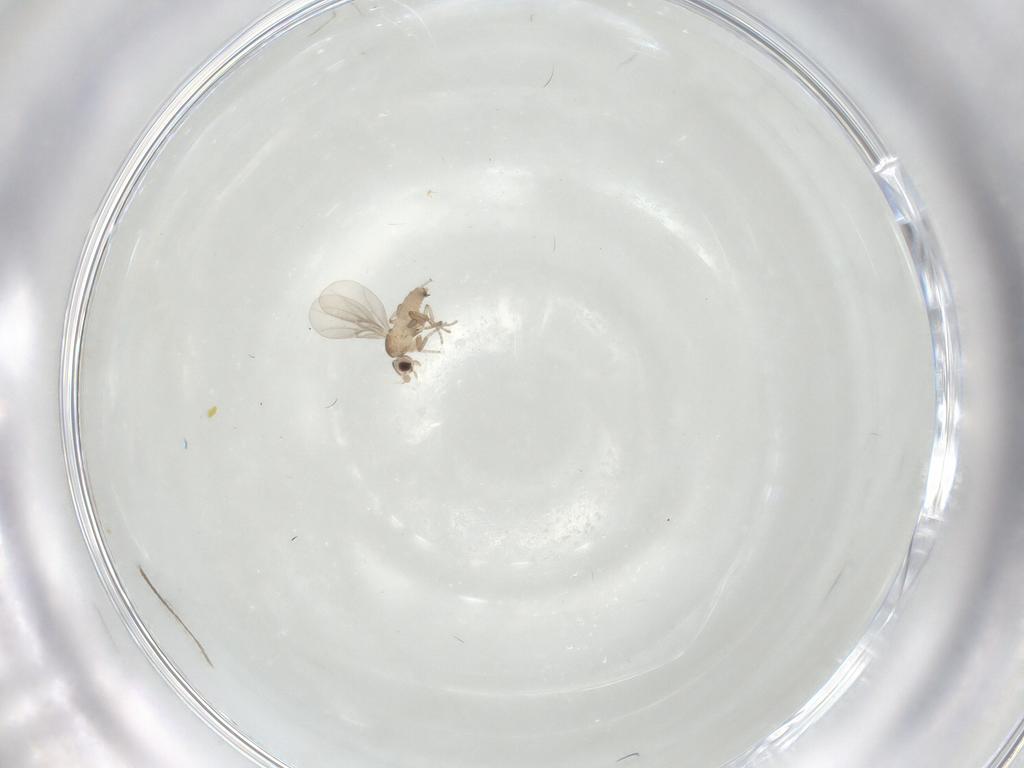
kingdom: Animalia
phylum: Arthropoda
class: Insecta
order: Diptera
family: Ceratopogonidae
